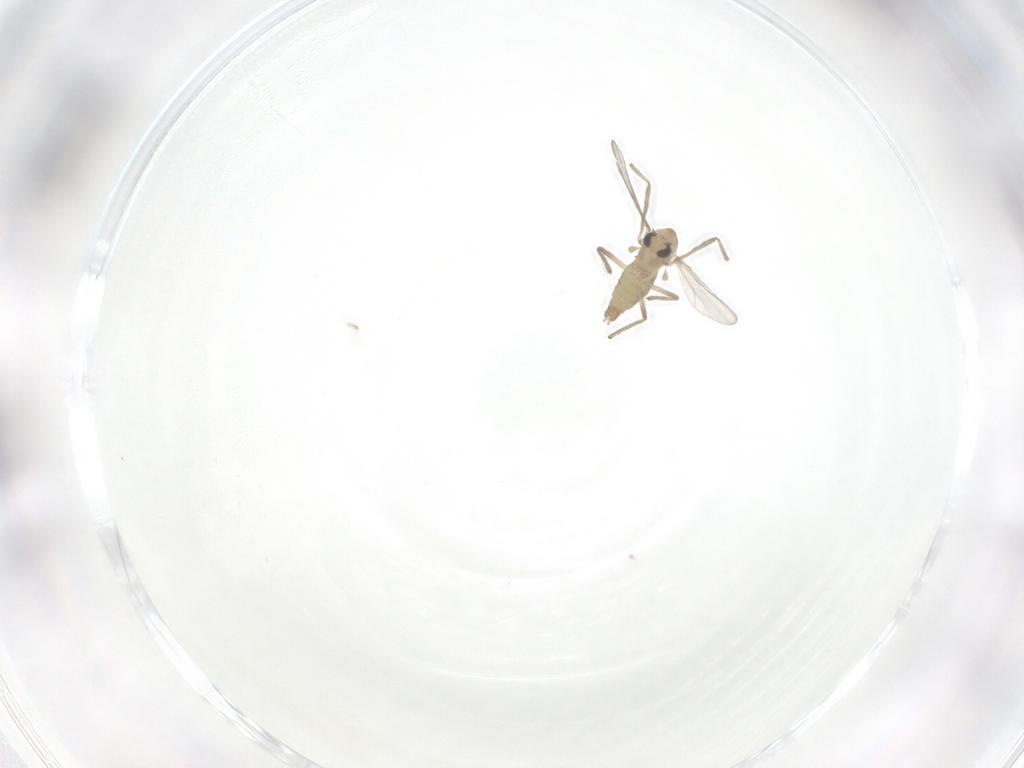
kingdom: Animalia
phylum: Arthropoda
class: Insecta
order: Diptera
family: Chironomidae
